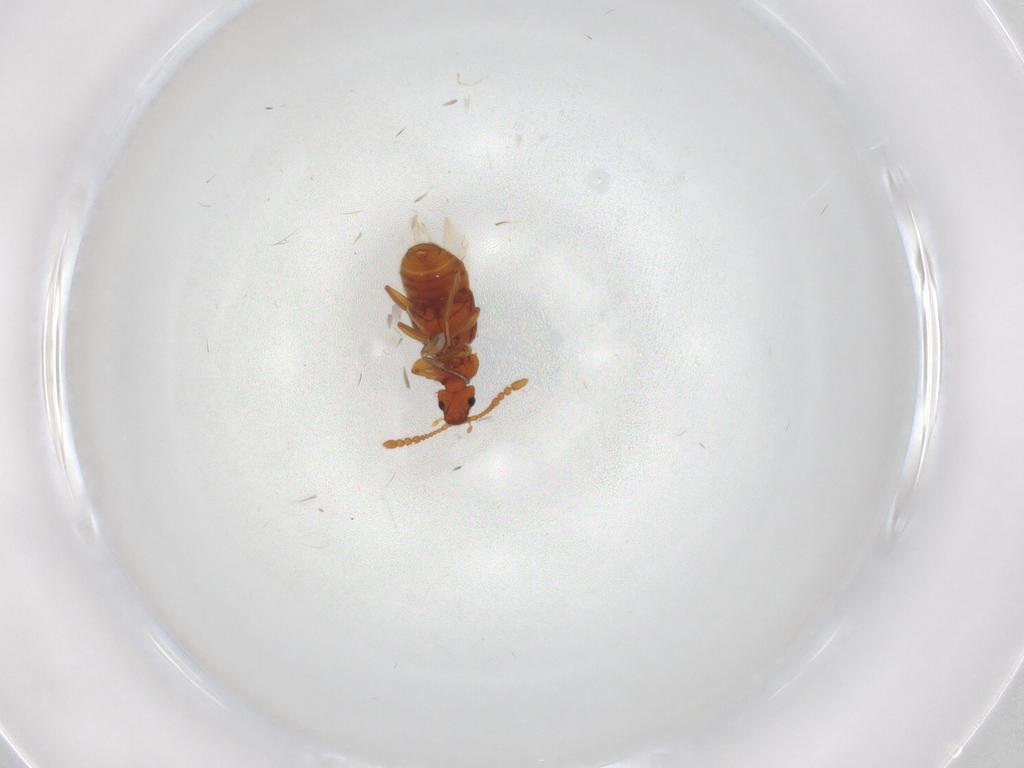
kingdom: Animalia
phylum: Arthropoda
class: Insecta
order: Coleoptera
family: Staphylinidae
